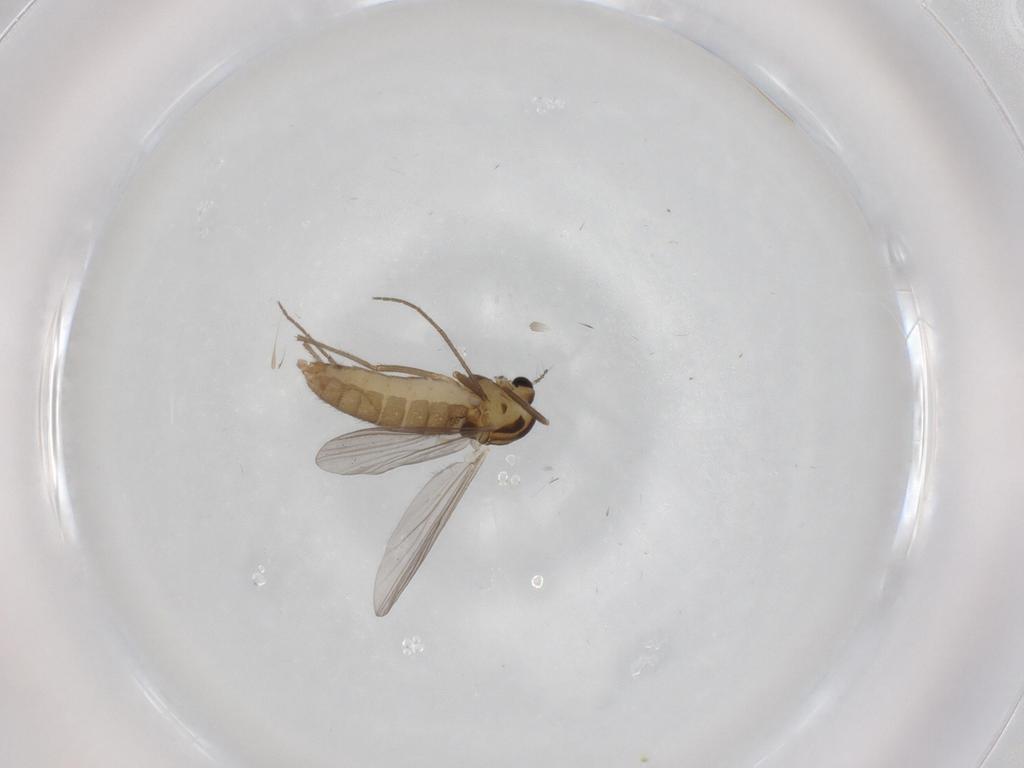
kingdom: Animalia
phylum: Arthropoda
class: Insecta
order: Diptera
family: Chironomidae
